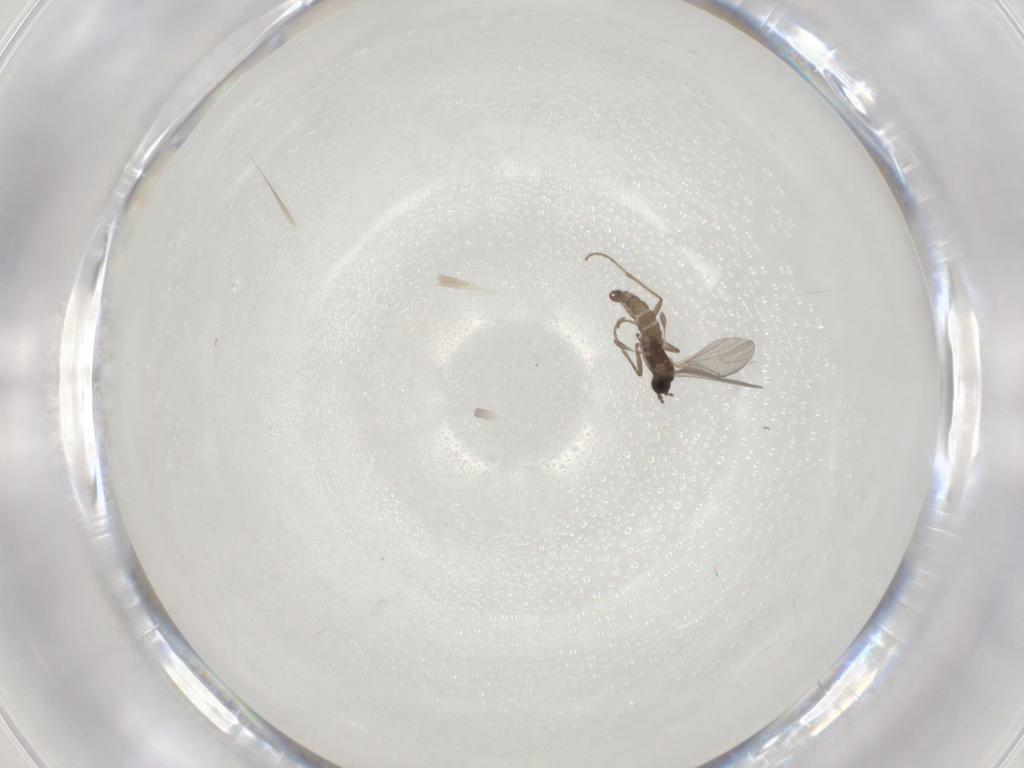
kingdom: Animalia
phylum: Arthropoda
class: Insecta
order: Diptera
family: Sciaridae
